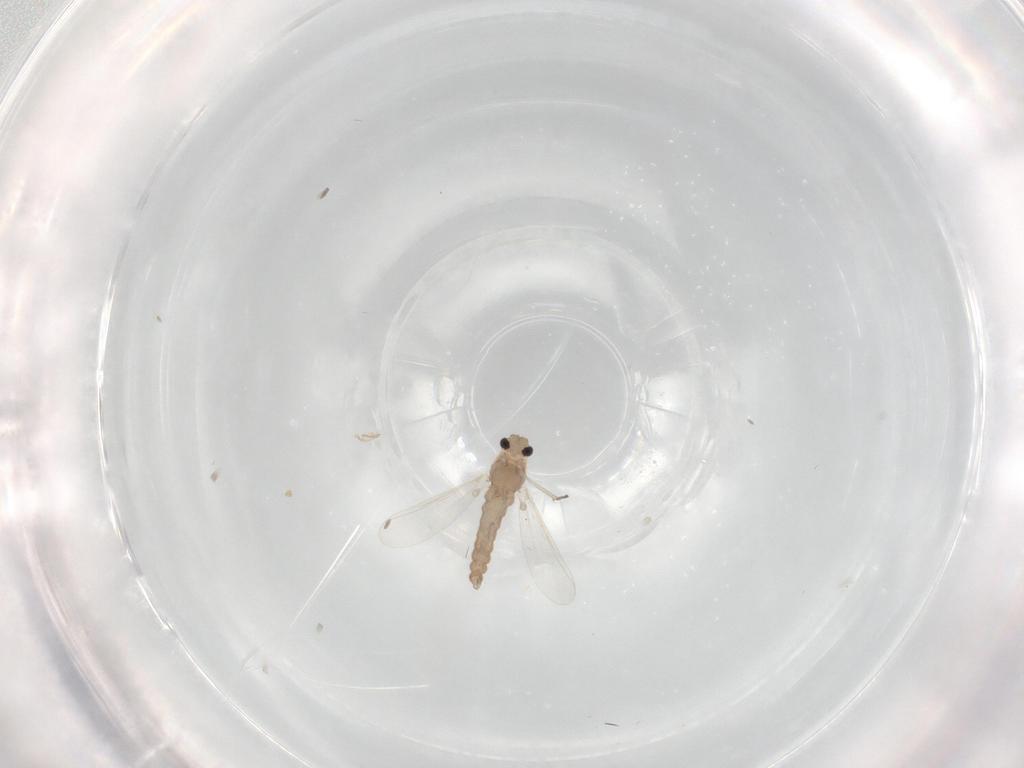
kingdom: Animalia
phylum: Arthropoda
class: Insecta
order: Diptera
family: Chironomidae
